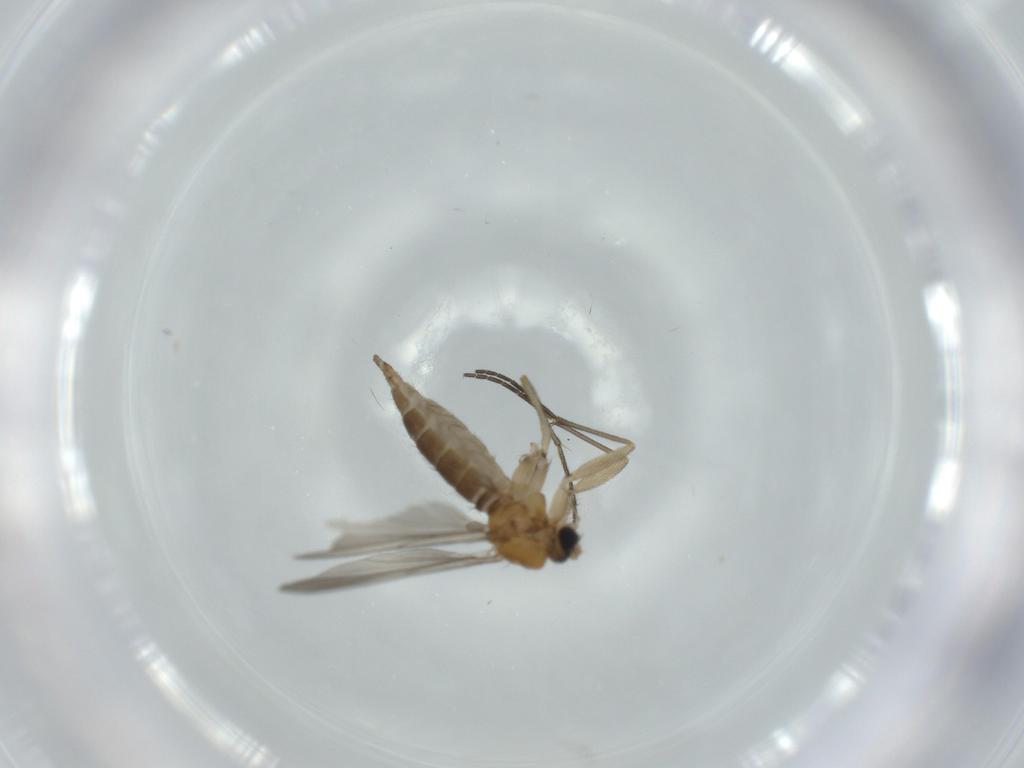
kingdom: Animalia
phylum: Arthropoda
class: Insecta
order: Diptera
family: Sciaridae
